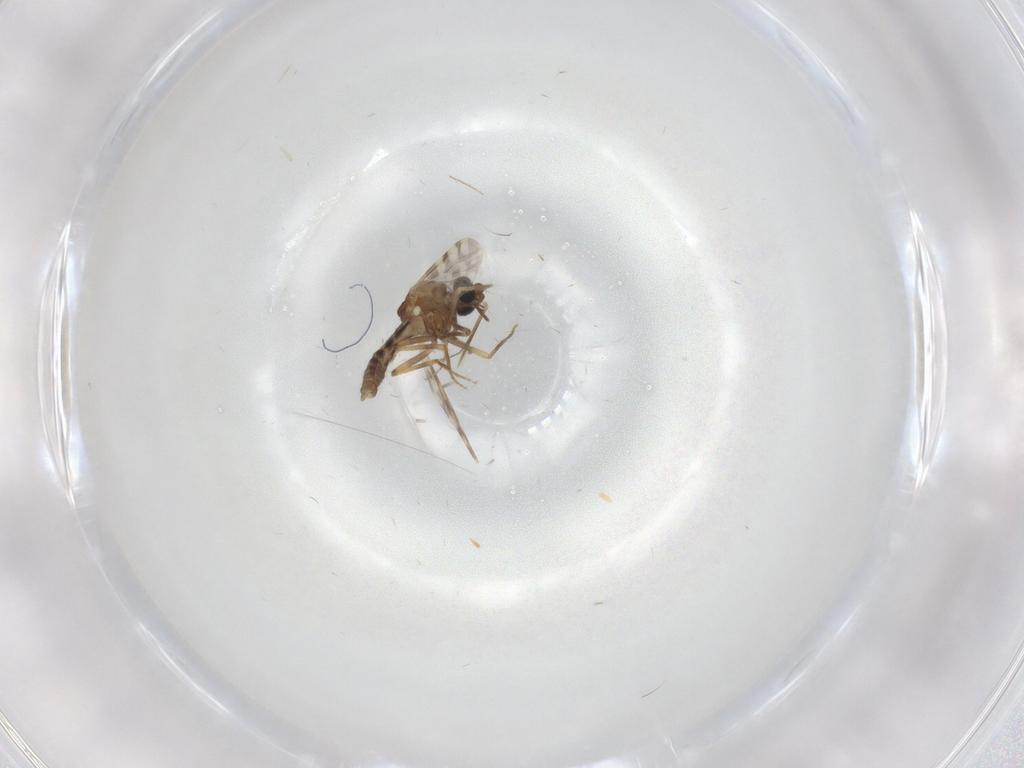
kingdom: Animalia
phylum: Arthropoda
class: Insecta
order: Diptera
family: Ceratopogonidae
